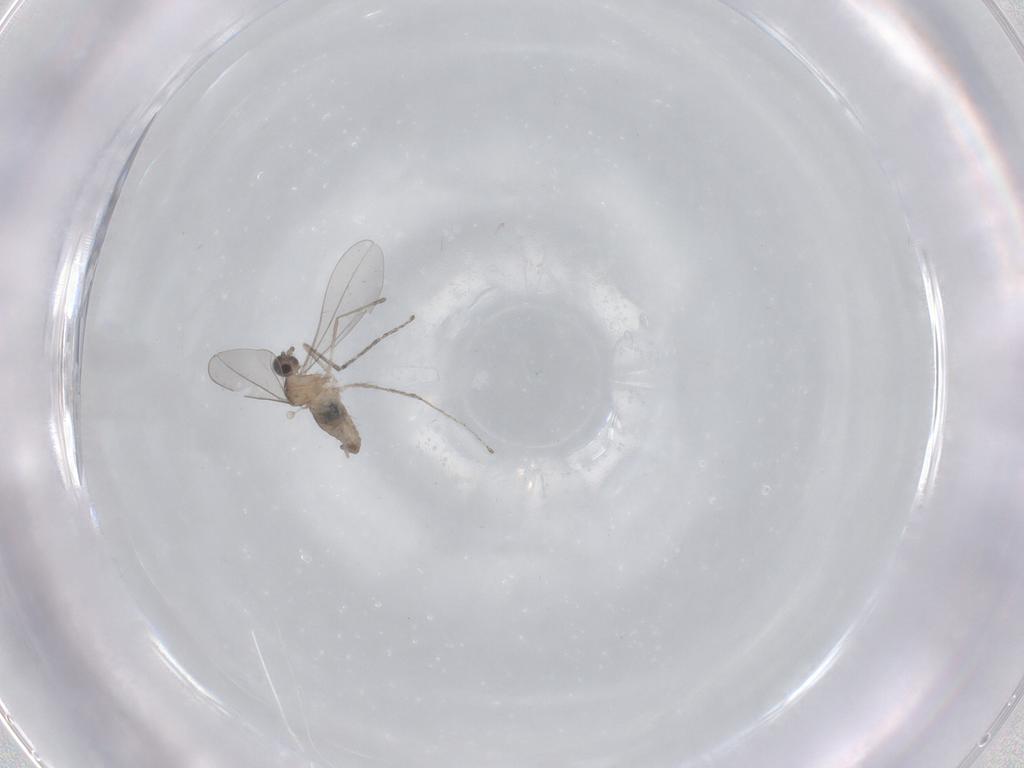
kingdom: Animalia
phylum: Arthropoda
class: Insecta
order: Diptera
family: Cecidomyiidae
